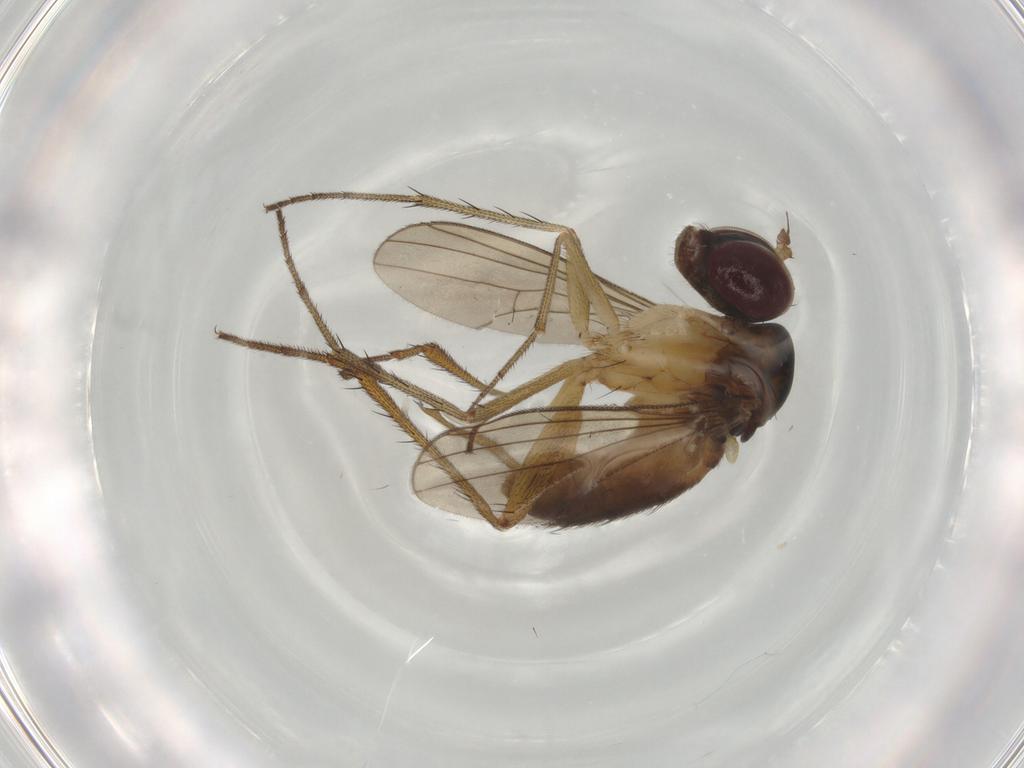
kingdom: Animalia
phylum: Arthropoda
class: Insecta
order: Diptera
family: Dolichopodidae
